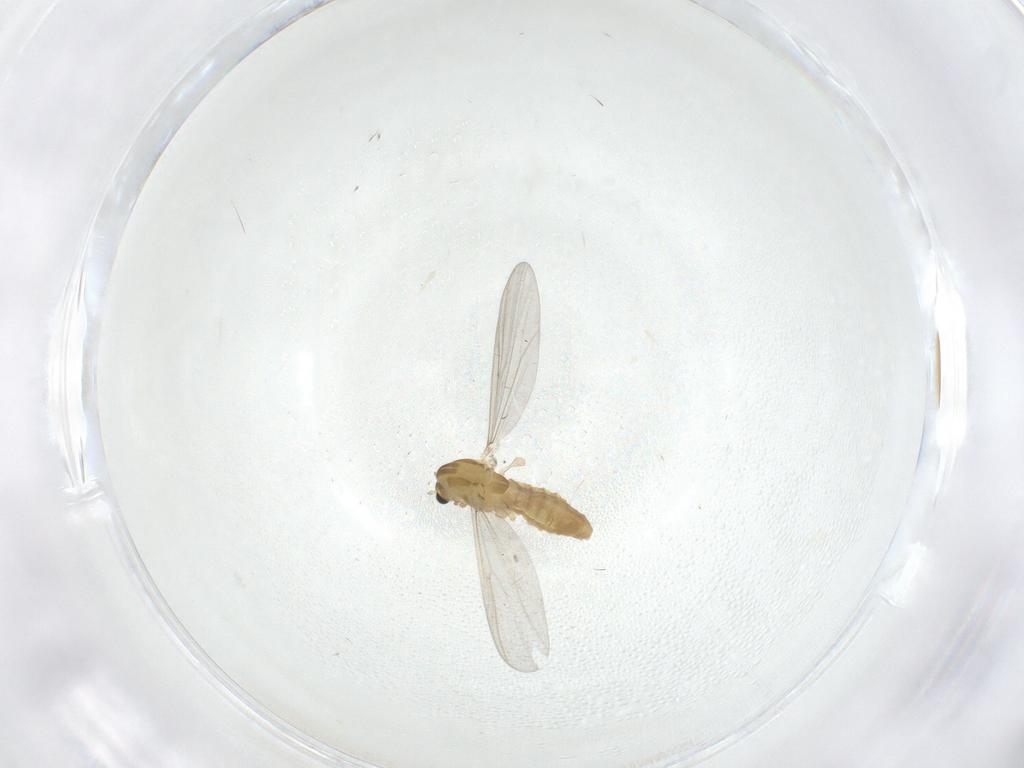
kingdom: Animalia
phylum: Arthropoda
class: Insecta
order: Diptera
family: Chironomidae
